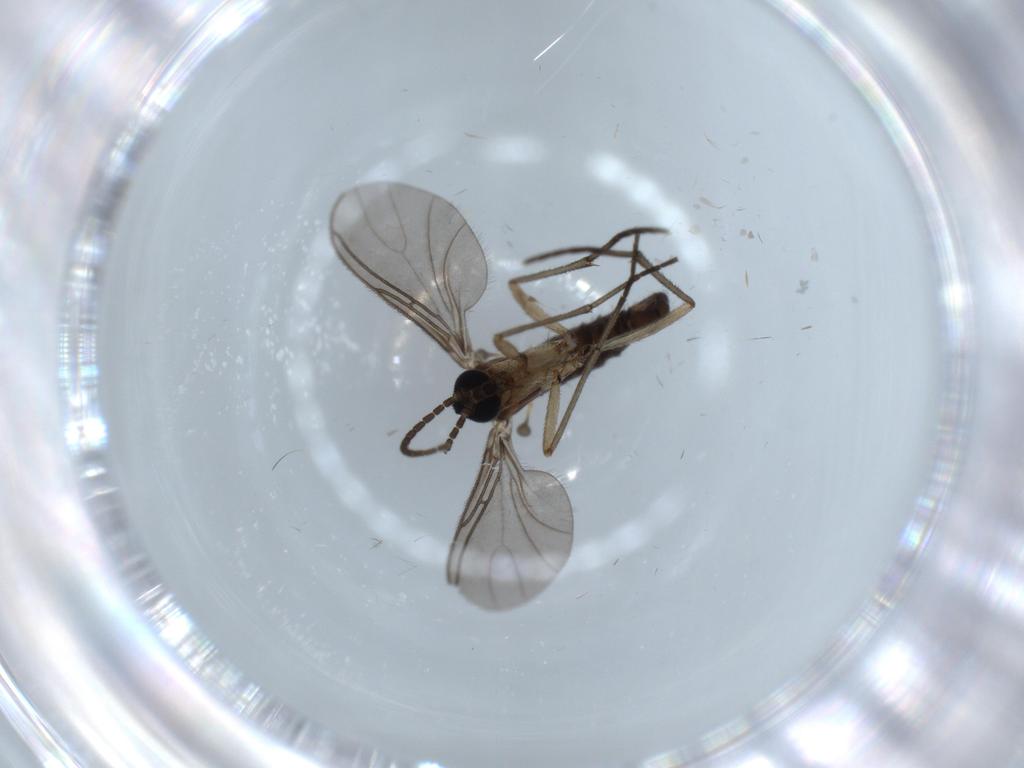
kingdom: Animalia
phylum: Arthropoda
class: Insecta
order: Diptera
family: Sciaridae
